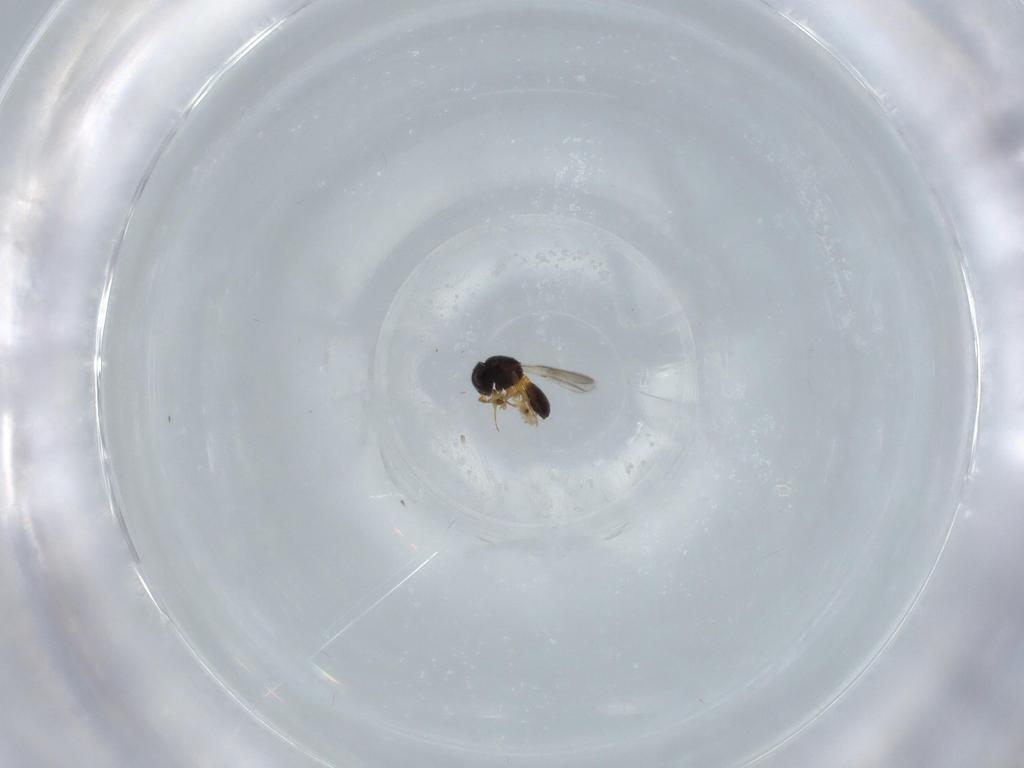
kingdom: Animalia
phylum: Arthropoda
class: Insecta
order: Hymenoptera
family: Scelionidae
